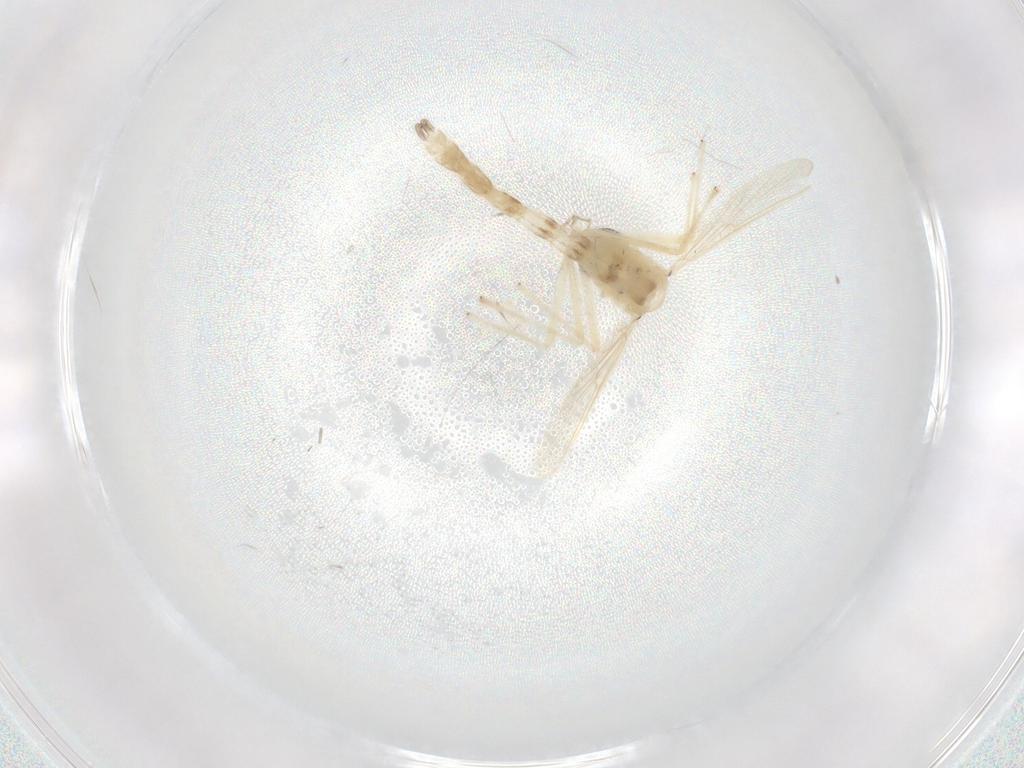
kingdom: Animalia
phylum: Arthropoda
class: Insecta
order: Diptera
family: Chironomidae
